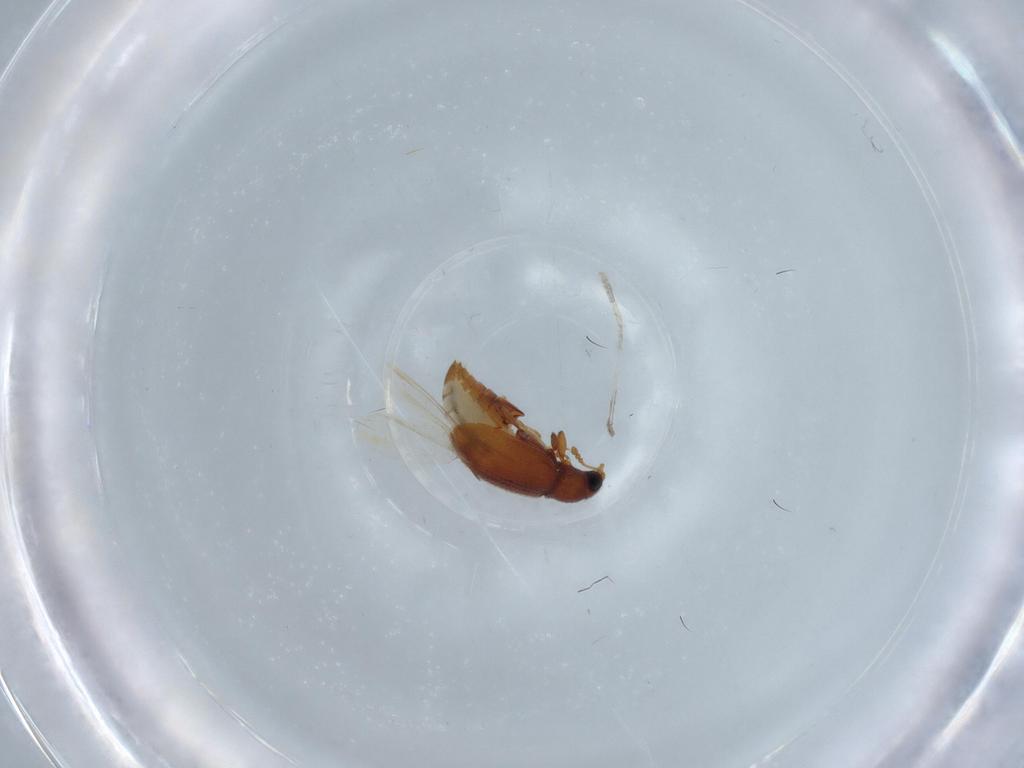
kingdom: Animalia
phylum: Arthropoda
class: Insecta
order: Coleoptera
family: Latridiidae
